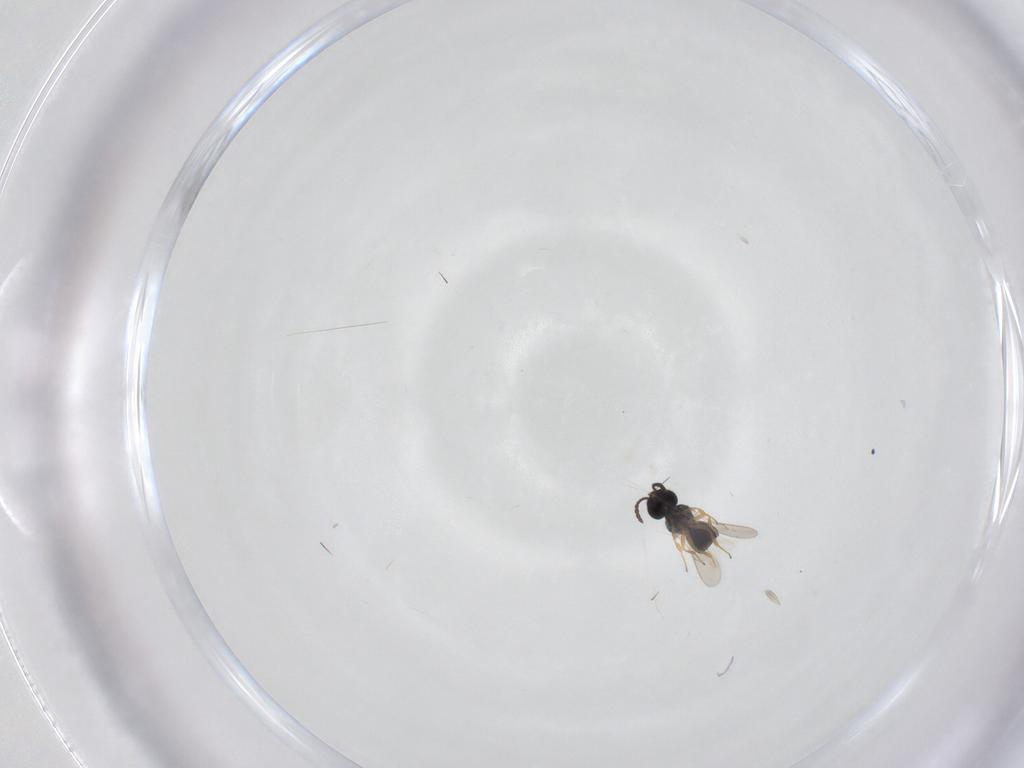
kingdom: Animalia
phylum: Arthropoda
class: Insecta
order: Hymenoptera
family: Scelionidae
